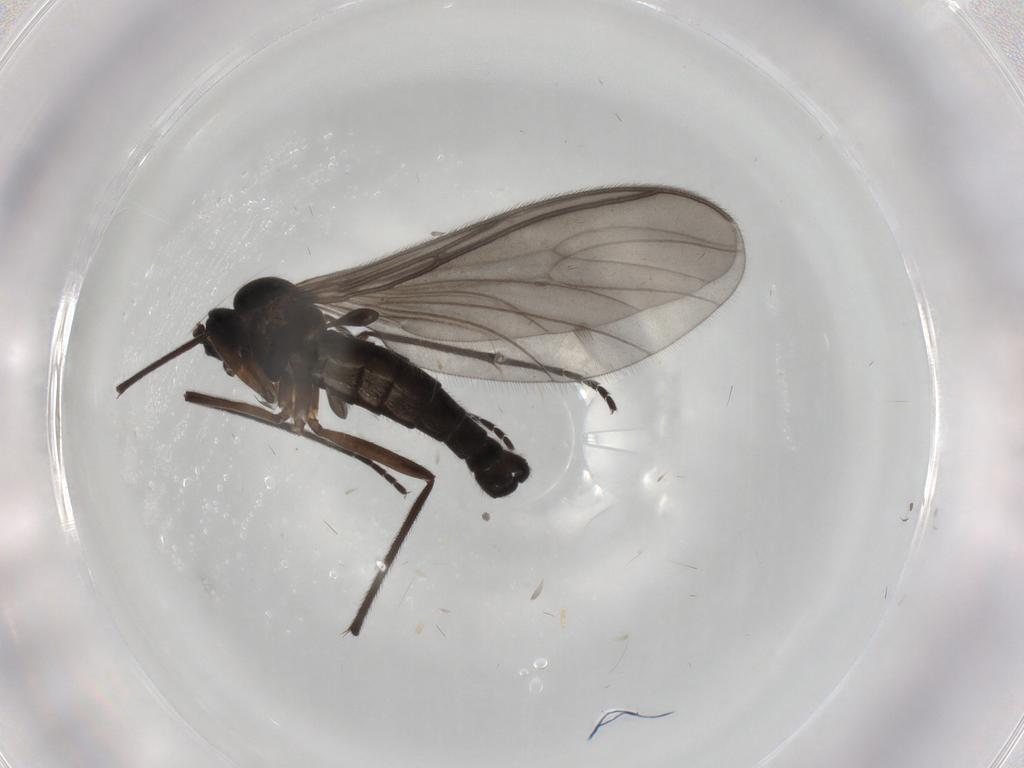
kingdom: Animalia
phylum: Arthropoda
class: Insecta
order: Diptera
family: Sciaridae
